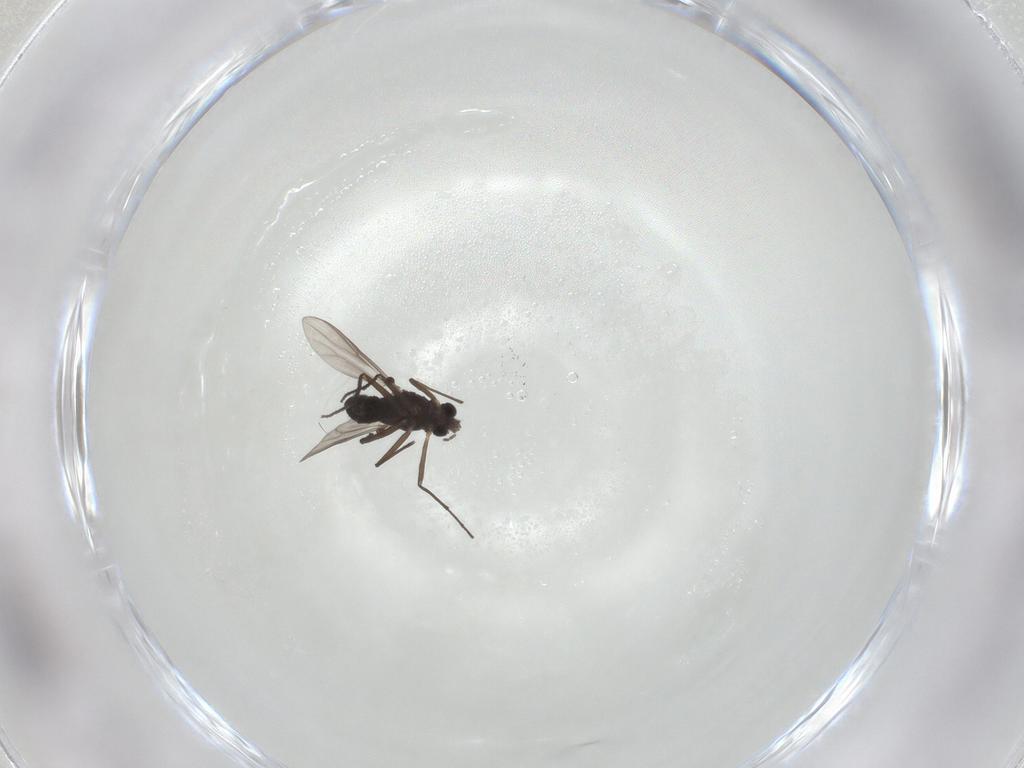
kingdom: Animalia
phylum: Arthropoda
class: Insecta
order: Diptera
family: Chironomidae
